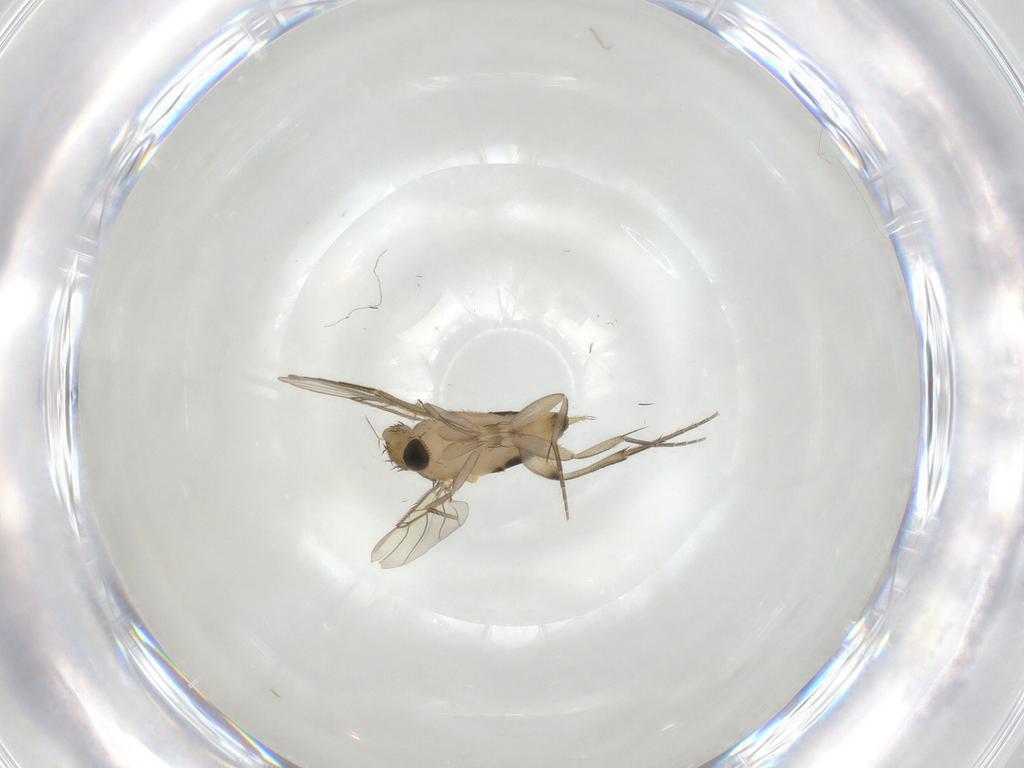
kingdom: Animalia
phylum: Arthropoda
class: Insecta
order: Diptera
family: Phoridae
